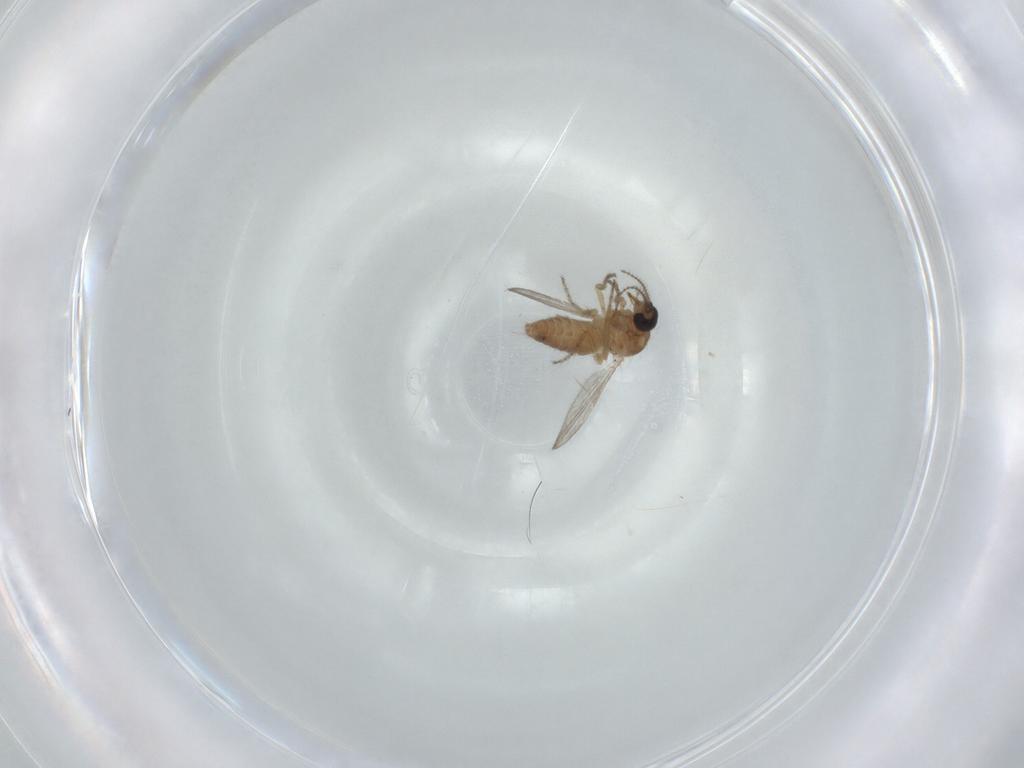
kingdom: Animalia
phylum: Arthropoda
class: Insecta
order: Diptera
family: Ceratopogonidae
